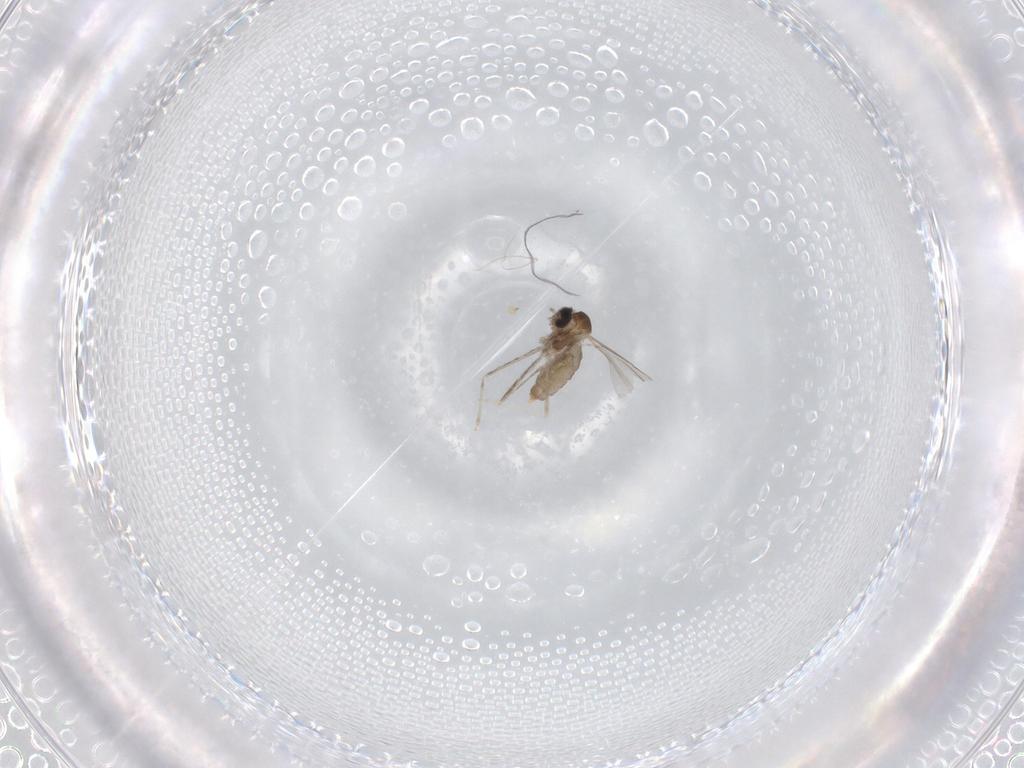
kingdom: Animalia
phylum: Arthropoda
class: Insecta
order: Diptera
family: Cecidomyiidae
